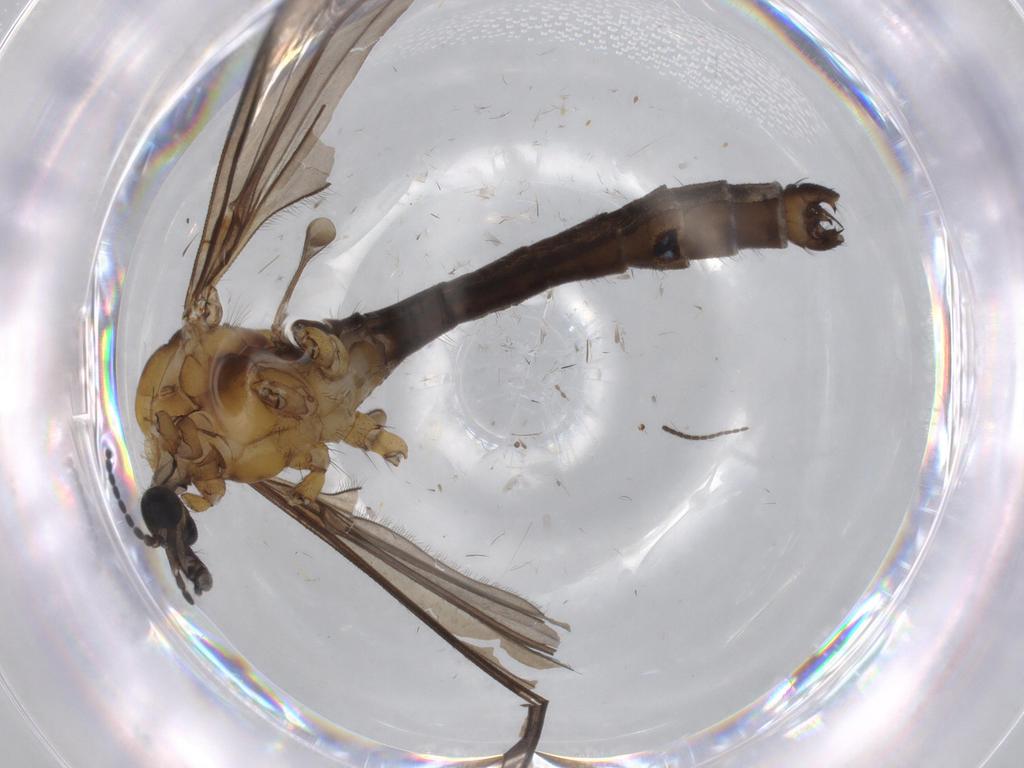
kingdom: Animalia
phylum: Arthropoda
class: Insecta
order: Diptera
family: Cecidomyiidae
